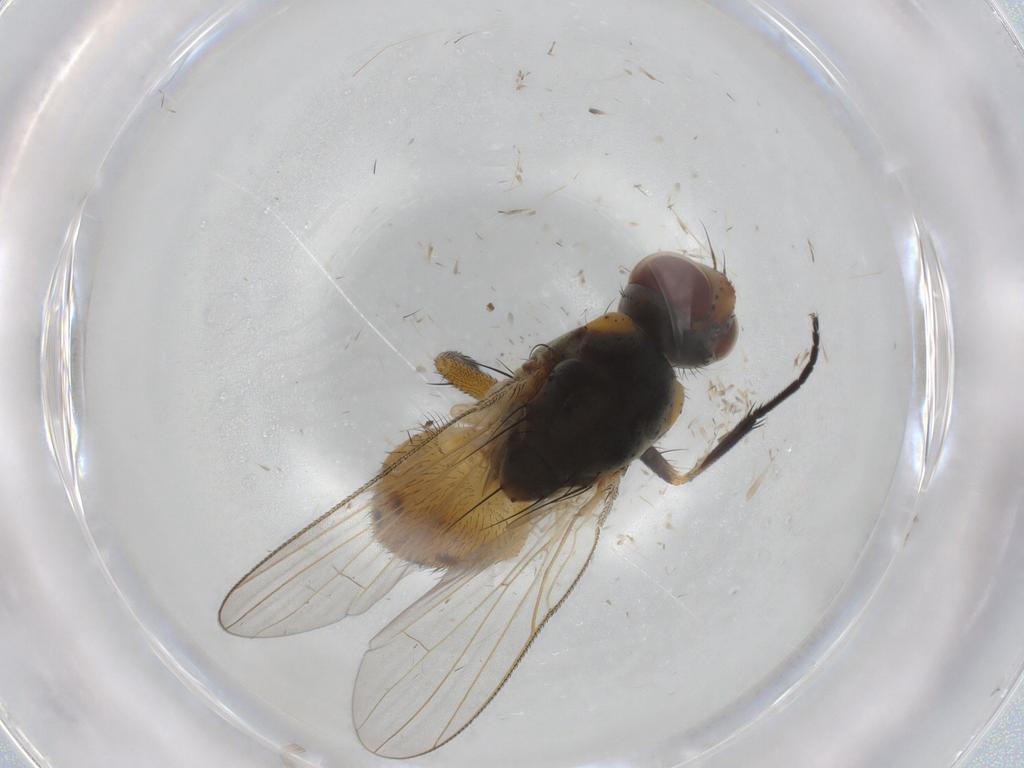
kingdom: Animalia
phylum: Arthropoda
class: Insecta
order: Diptera
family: Muscidae
